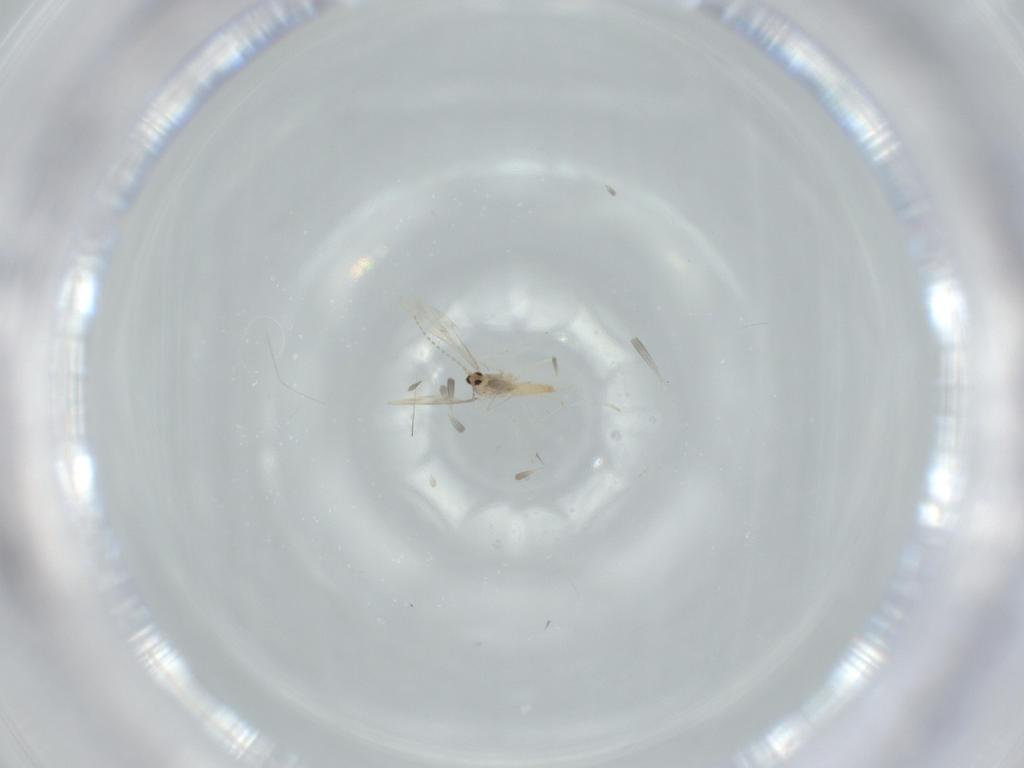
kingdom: Animalia
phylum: Arthropoda
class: Insecta
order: Diptera
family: Cecidomyiidae
